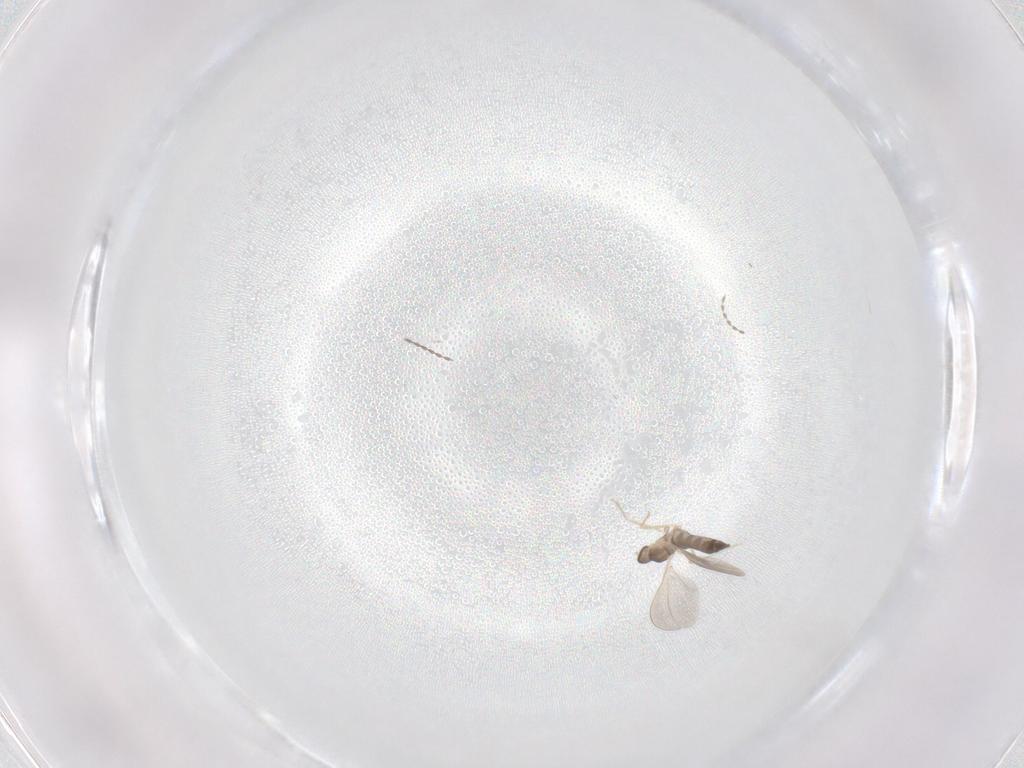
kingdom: Animalia
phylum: Arthropoda
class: Insecta
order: Diptera
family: Cecidomyiidae
